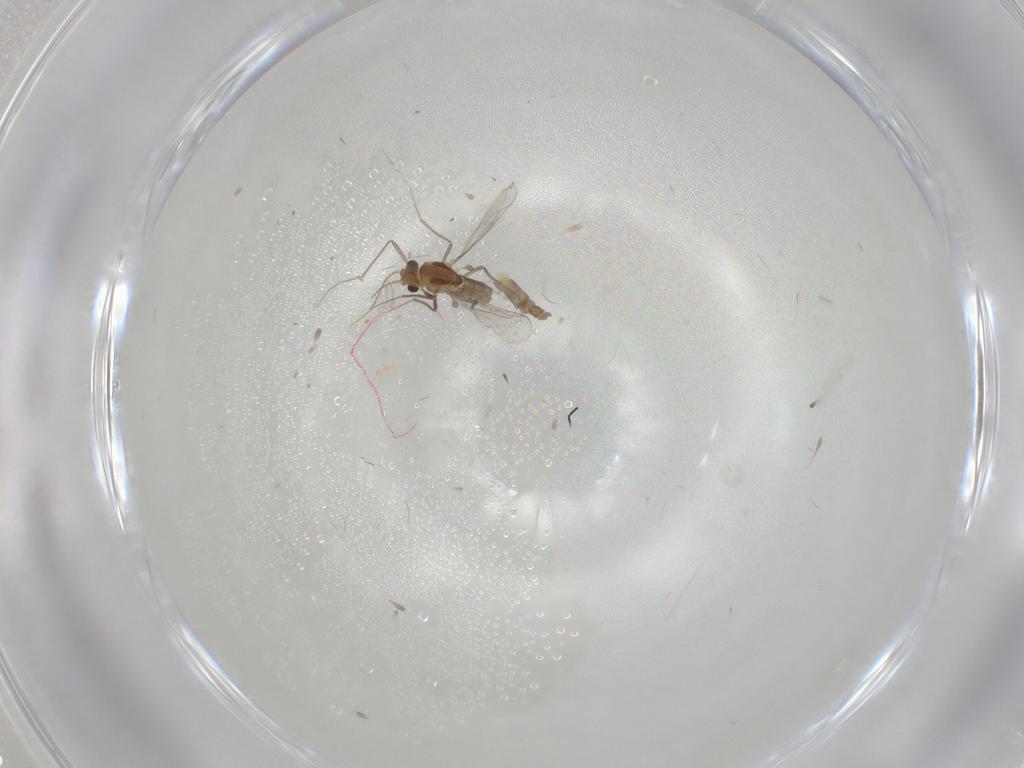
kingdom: Animalia
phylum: Arthropoda
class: Insecta
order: Diptera
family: Chironomidae
